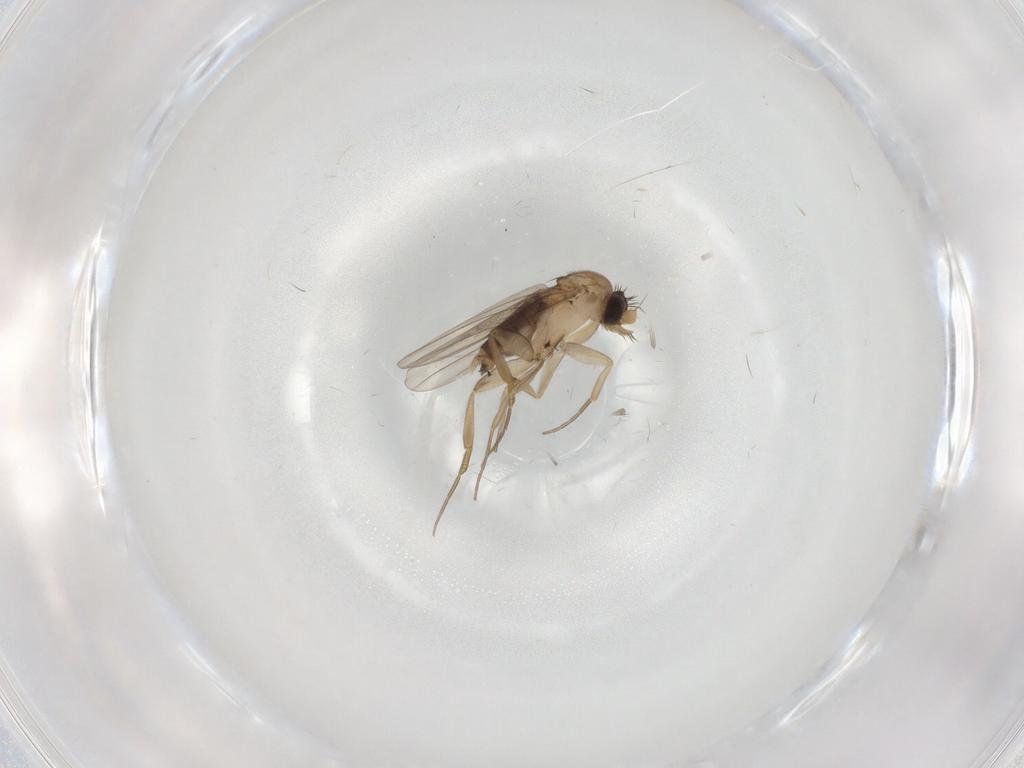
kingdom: Animalia
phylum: Arthropoda
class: Insecta
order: Diptera
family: Phoridae
